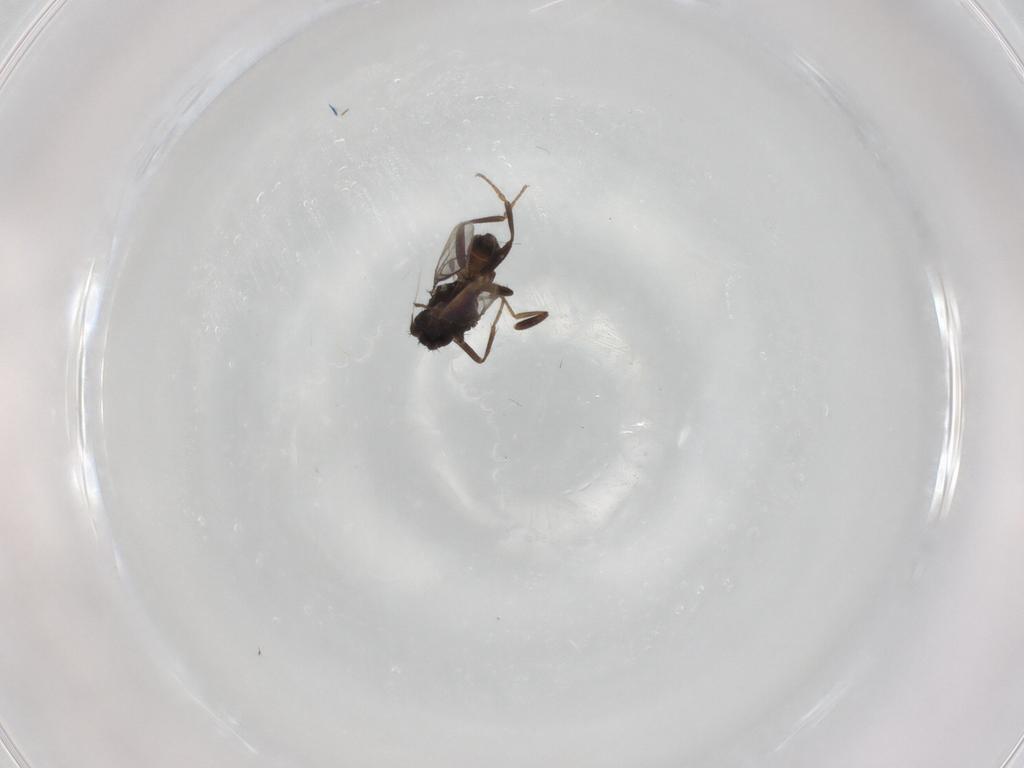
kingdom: Animalia
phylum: Arthropoda
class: Insecta
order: Diptera
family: Sphaeroceridae
